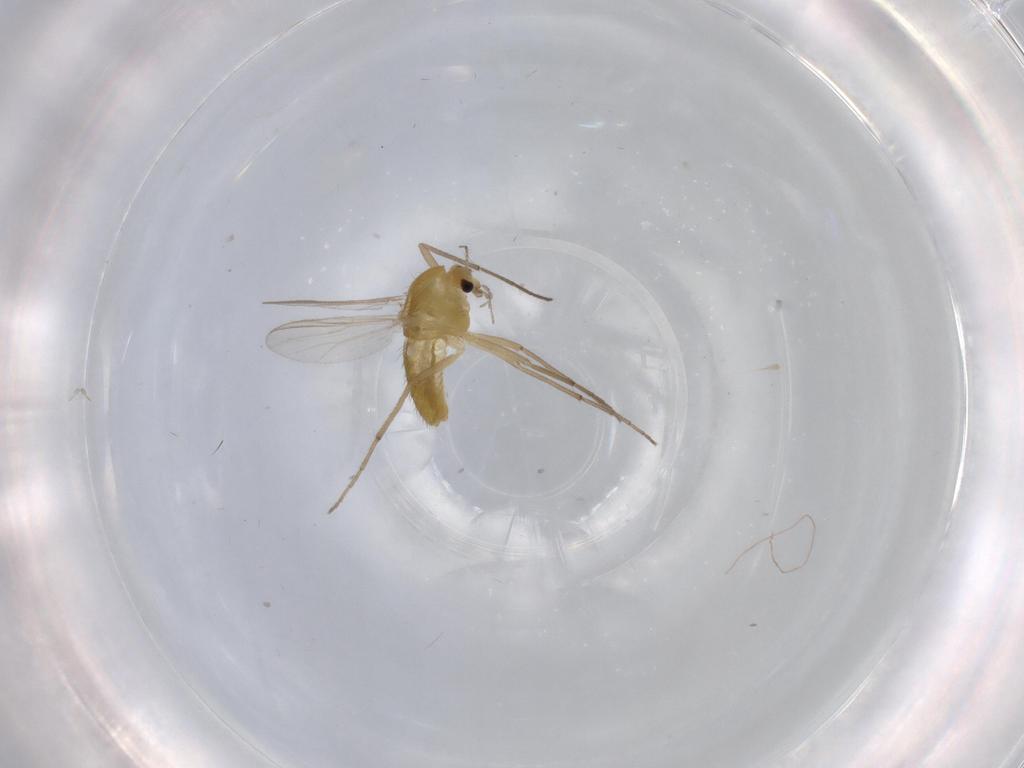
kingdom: Animalia
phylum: Arthropoda
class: Insecta
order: Diptera
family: Chironomidae
